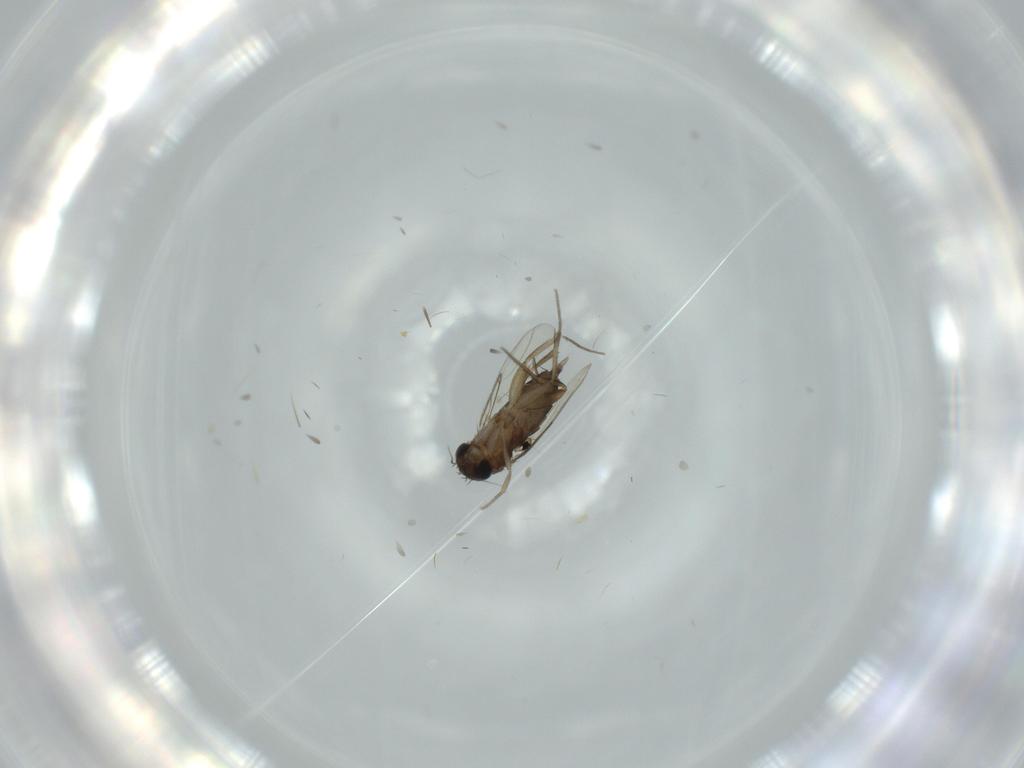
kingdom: Animalia
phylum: Arthropoda
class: Insecta
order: Diptera
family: Phoridae
